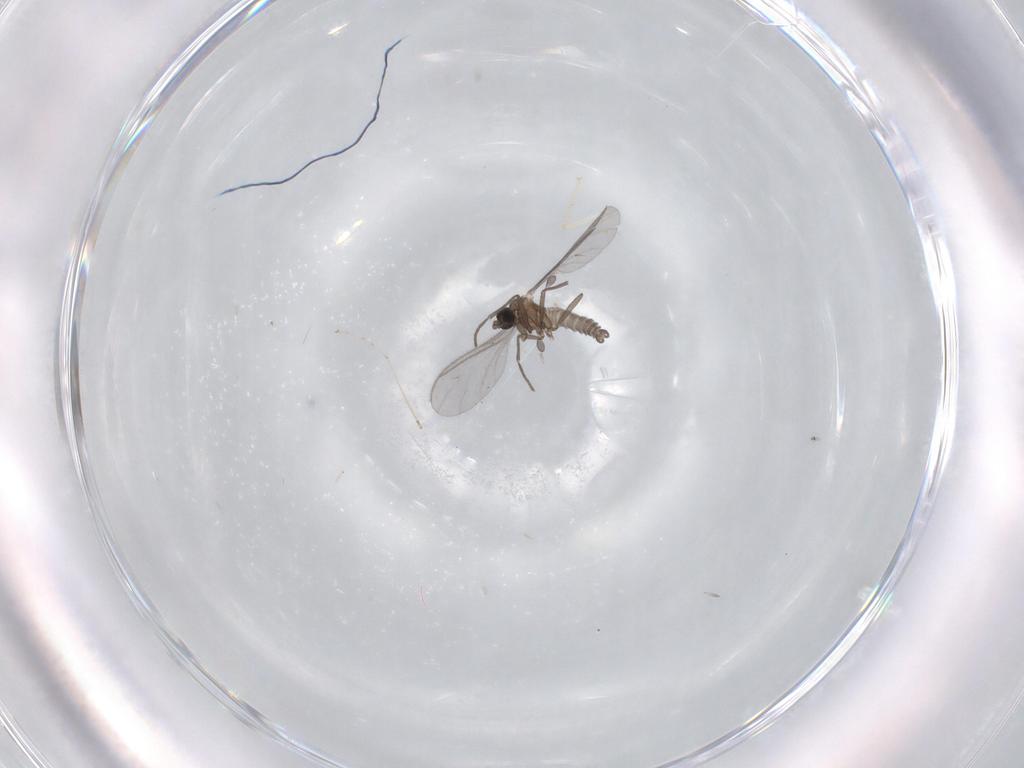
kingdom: Animalia
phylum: Arthropoda
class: Insecta
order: Diptera
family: Sciaridae
